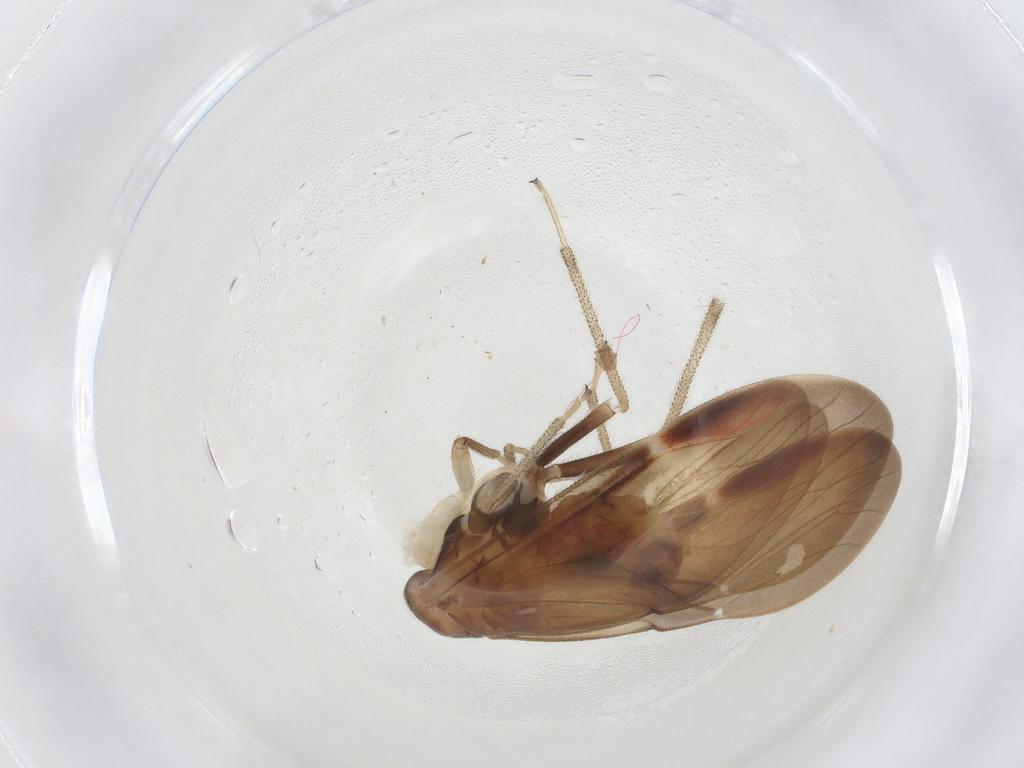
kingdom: Animalia
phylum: Arthropoda
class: Insecta
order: Psocodea
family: Amphipsocidae
